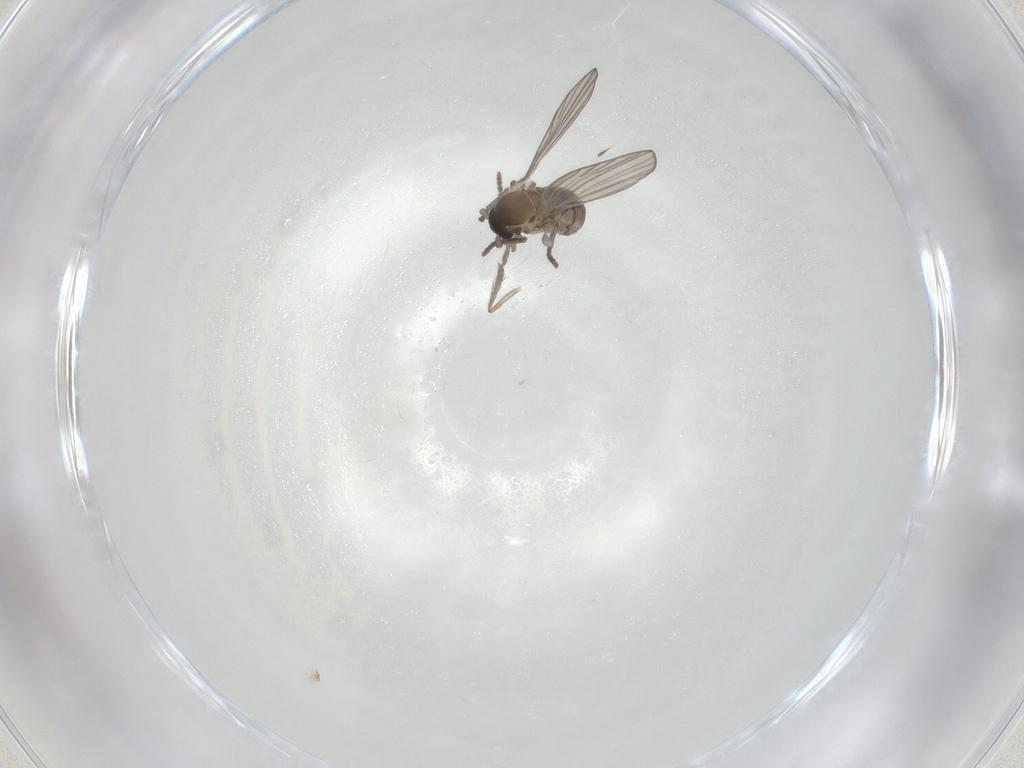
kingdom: Animalia
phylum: Arthropoda
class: Insecta
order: Diptera
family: Psychodidae
